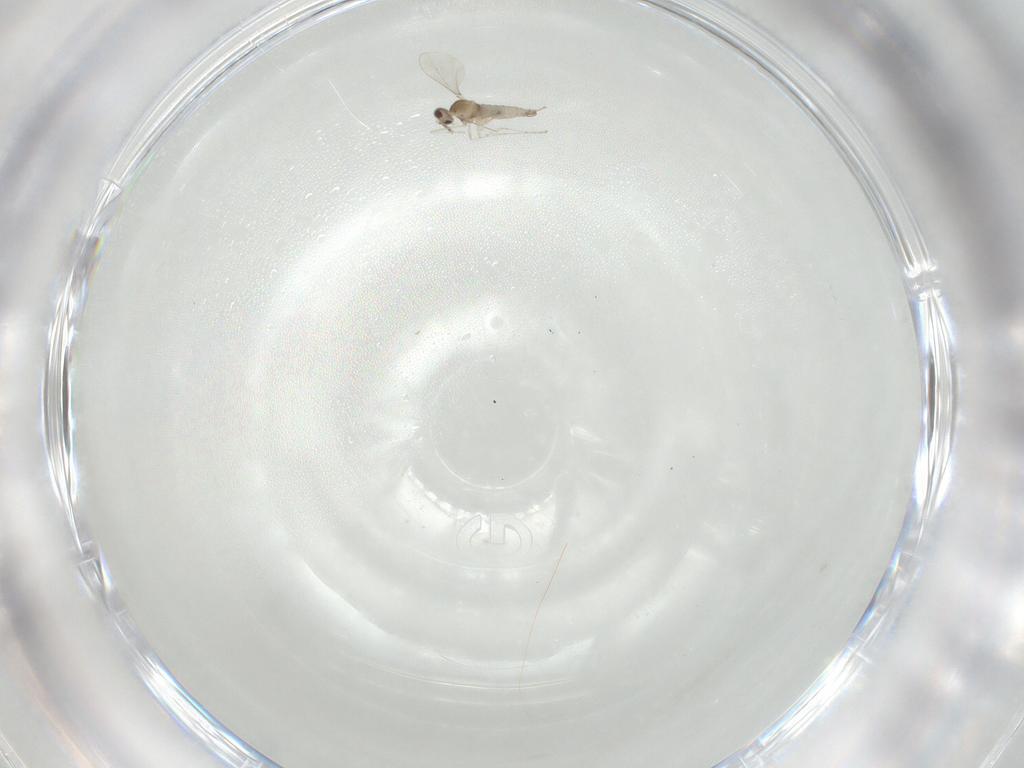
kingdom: Animalia
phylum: Arthropoda
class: Insecta
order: Diptera
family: Cecidomyiidae
